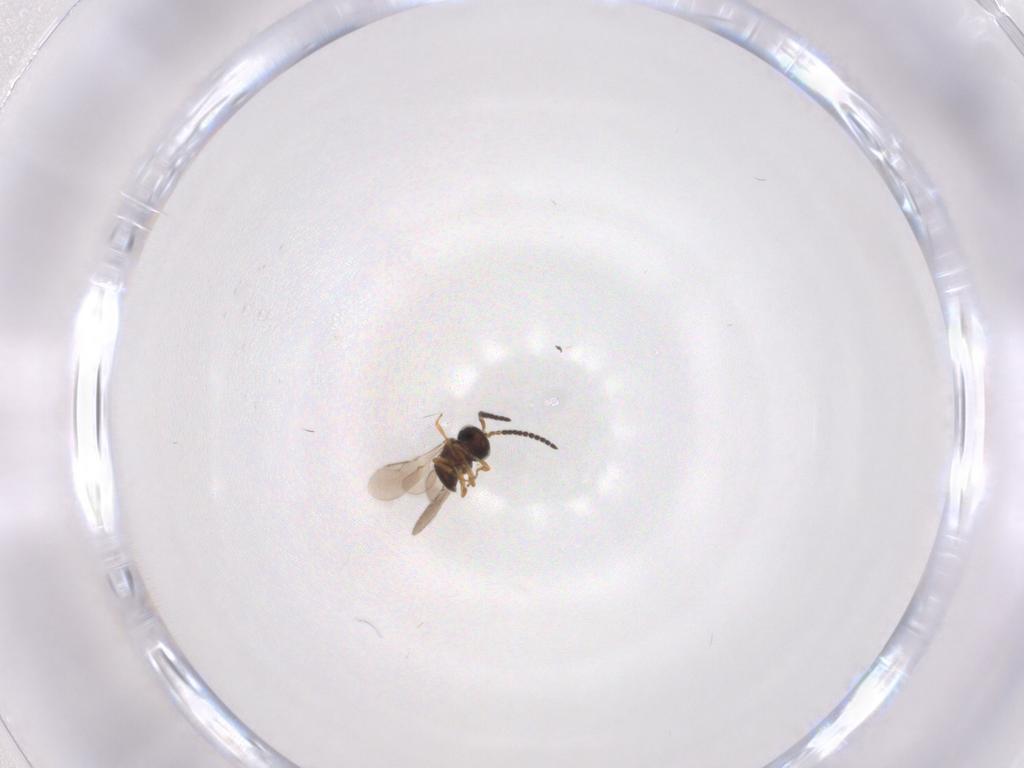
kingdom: Animalia
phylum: Arthropoda
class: Insecta
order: Hymenoptera
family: Scelionidae
